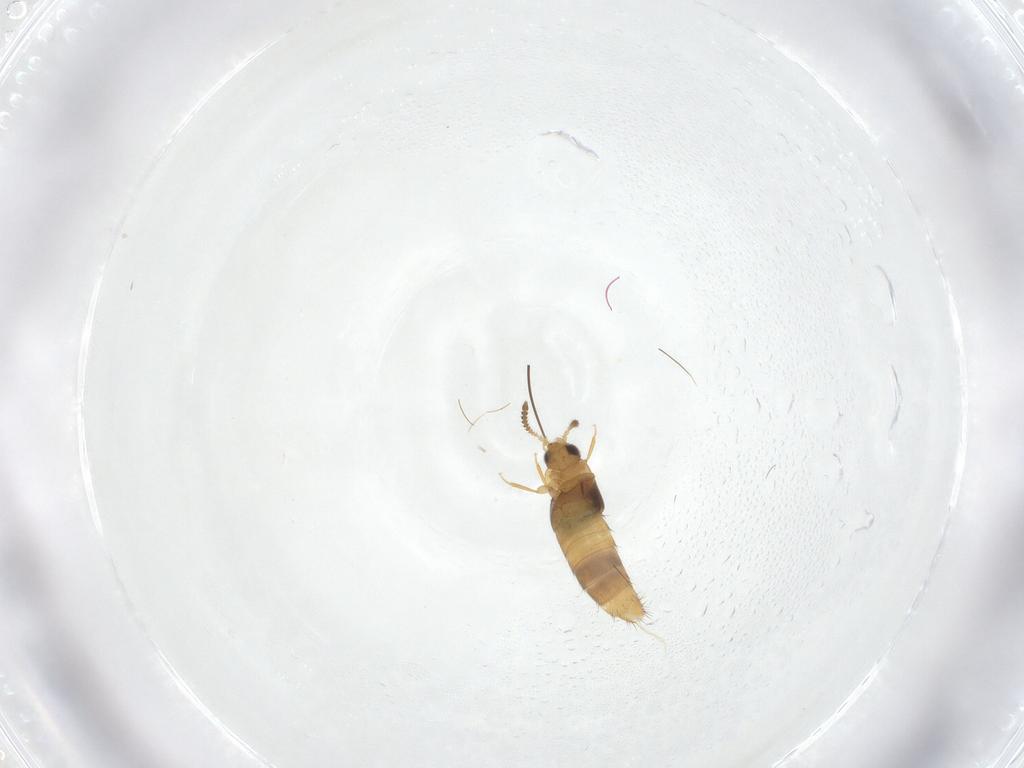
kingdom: Animalia
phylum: Arthropoda
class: Insecta
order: Coleoptera
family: Staphylinidae
